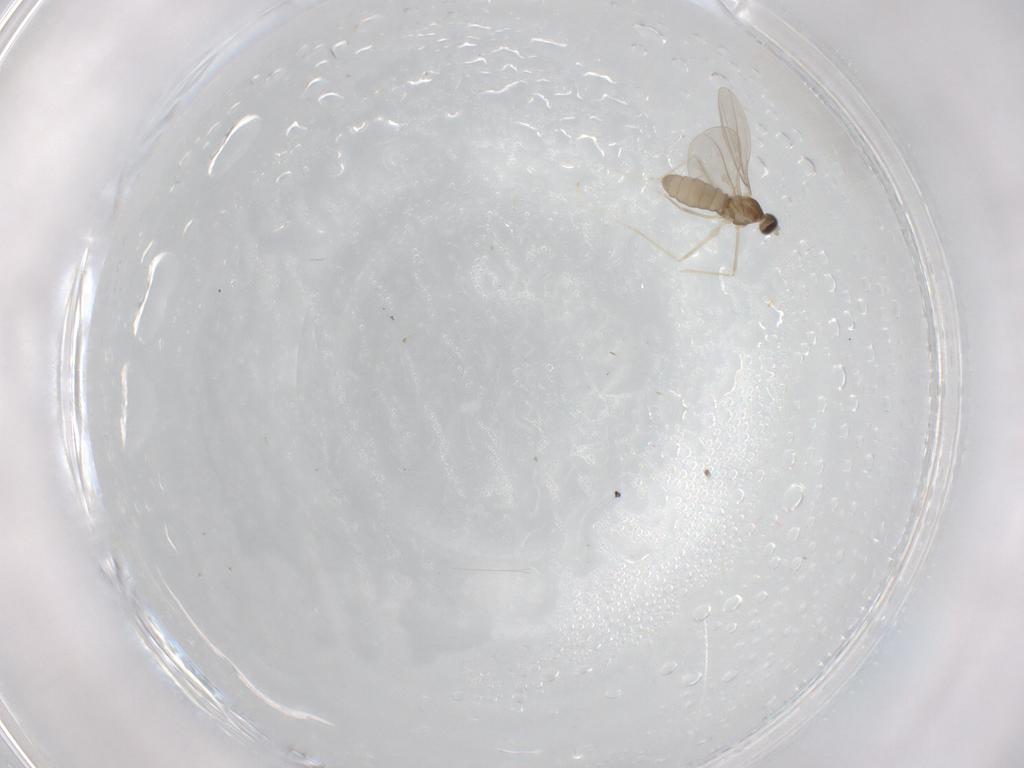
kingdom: Animalia
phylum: Arthropoda
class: Insecta
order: Diptera
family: Cecidomyiidae
